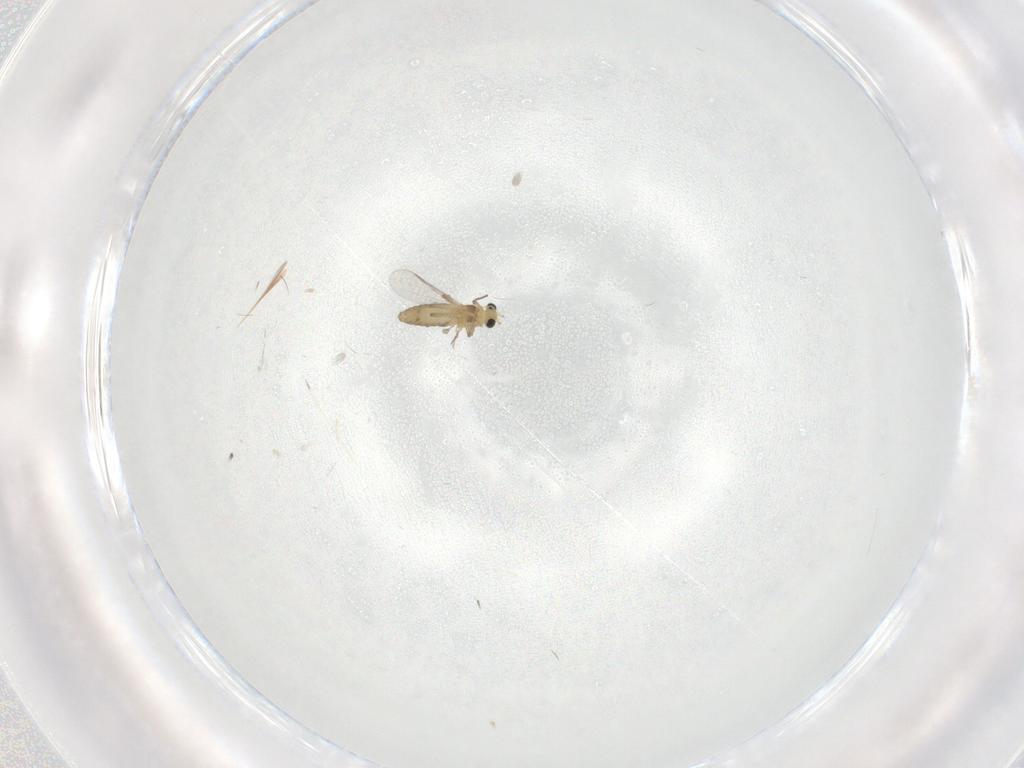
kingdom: Animalia
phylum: Arthropoda
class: Insecta
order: Diptera
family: Chironomidae
